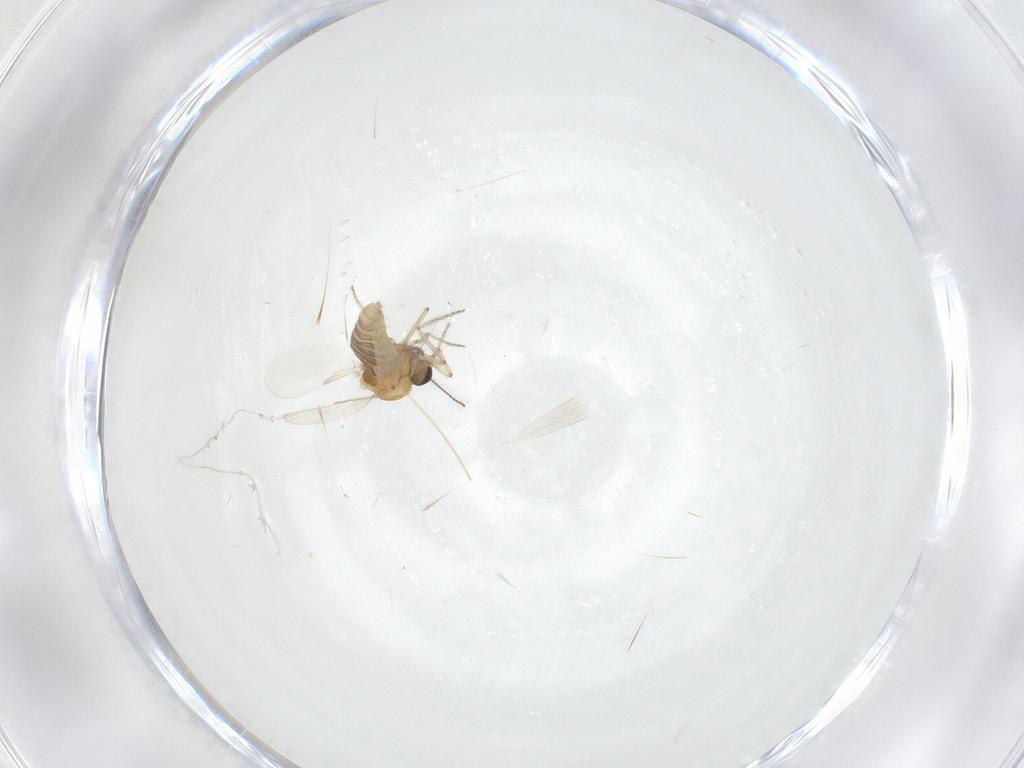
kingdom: Animalia
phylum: Arthropoda
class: Insecta
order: Diptera
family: Ceratopogonidae
